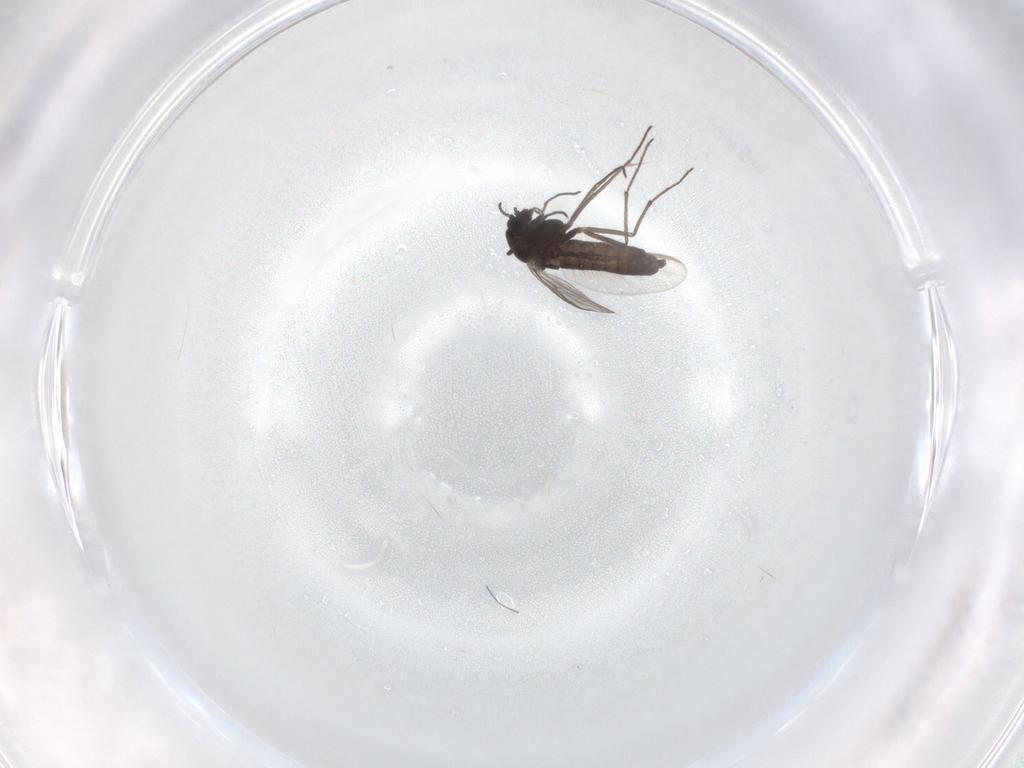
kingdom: Animalia
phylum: Arthropoda
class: Insecta
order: Diptera
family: Chironomidae
